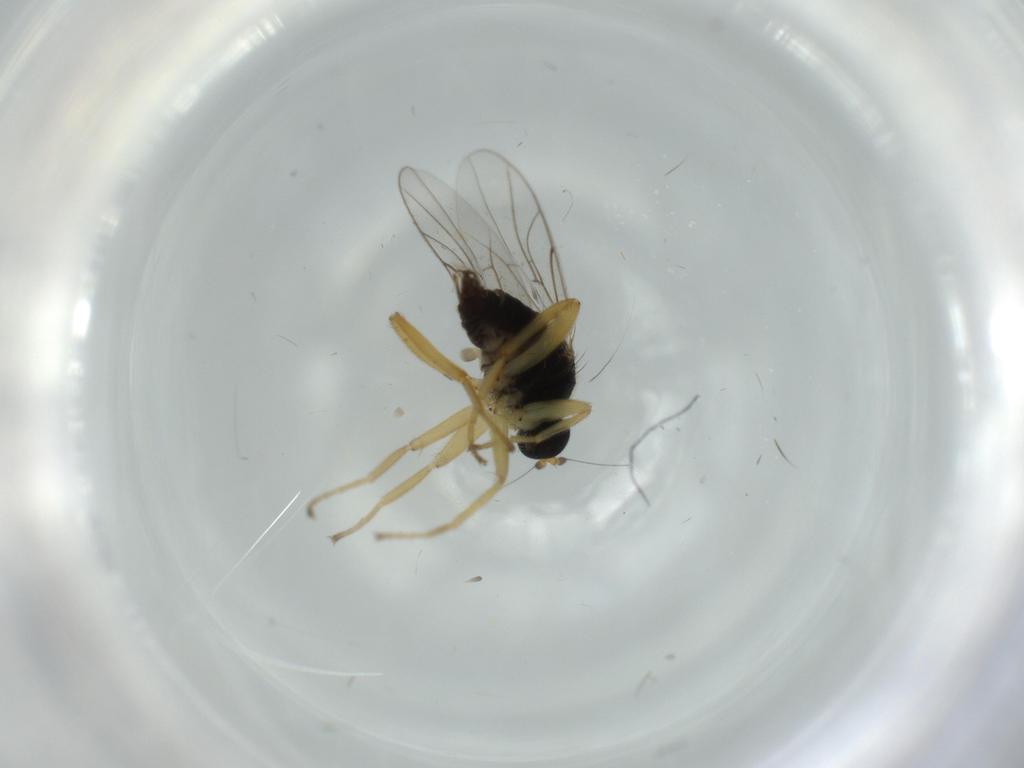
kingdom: Animalia
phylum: Arthropoda
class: Insecta
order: Diptera
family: Hybotidae
